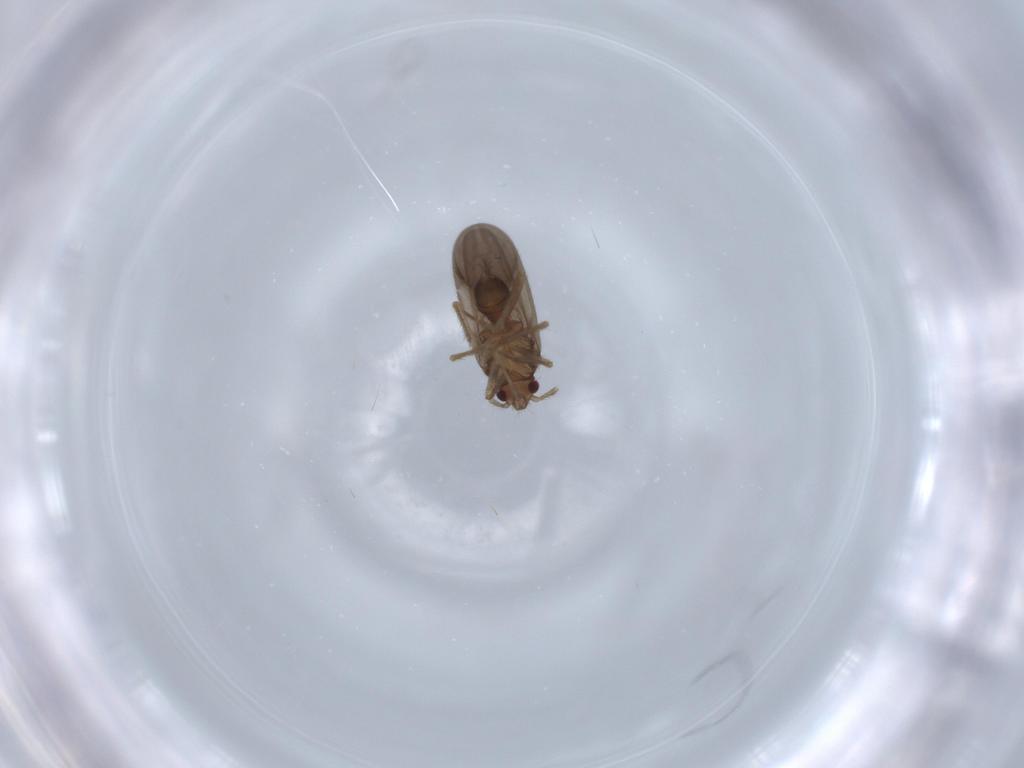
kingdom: Animalia
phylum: Arthropoda
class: Insecta
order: Hemiptera
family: Ceratocombidae
